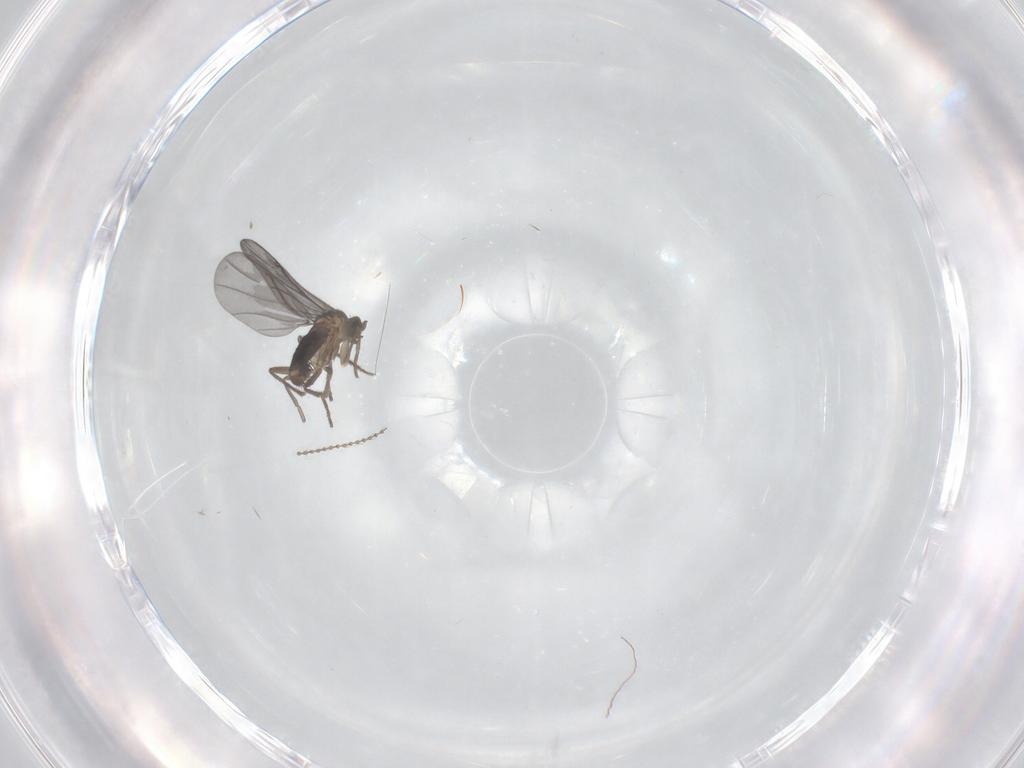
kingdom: Animalia
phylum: Arthropoda
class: Insecta
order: Diptera
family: Phoridae
